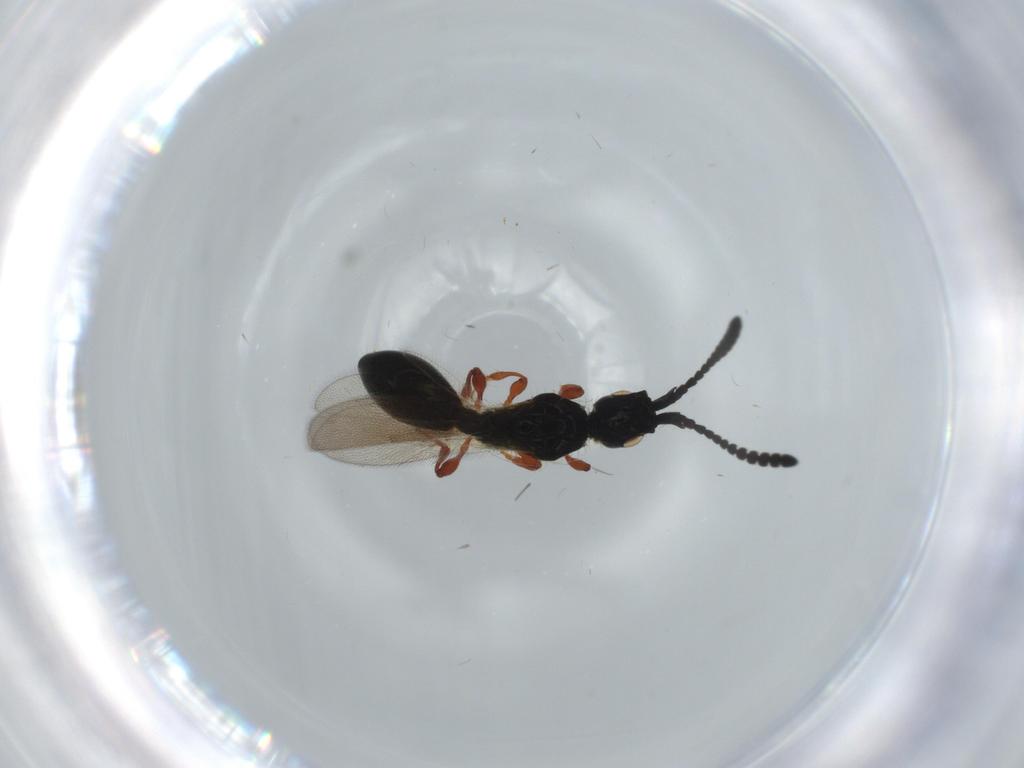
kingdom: Animalia
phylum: Arthropoda
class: Insecta
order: Hymenoptera
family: Diapriidae
